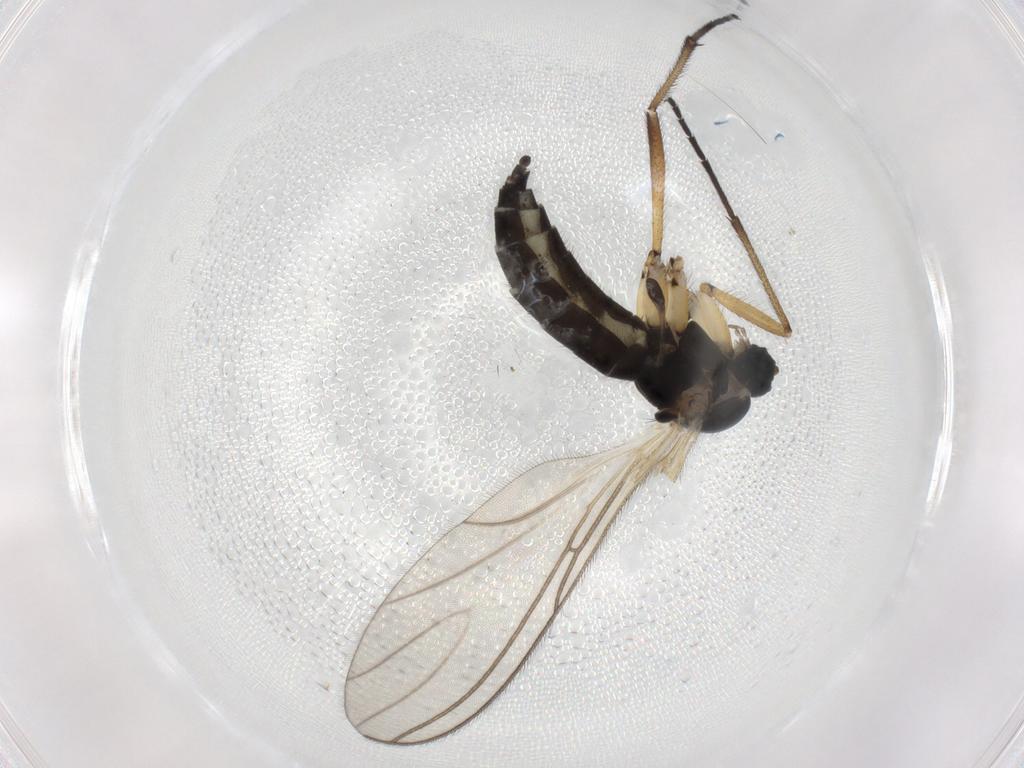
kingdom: Animalia
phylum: Arthropoda
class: Insecta
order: Diptera
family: Sciaridae
